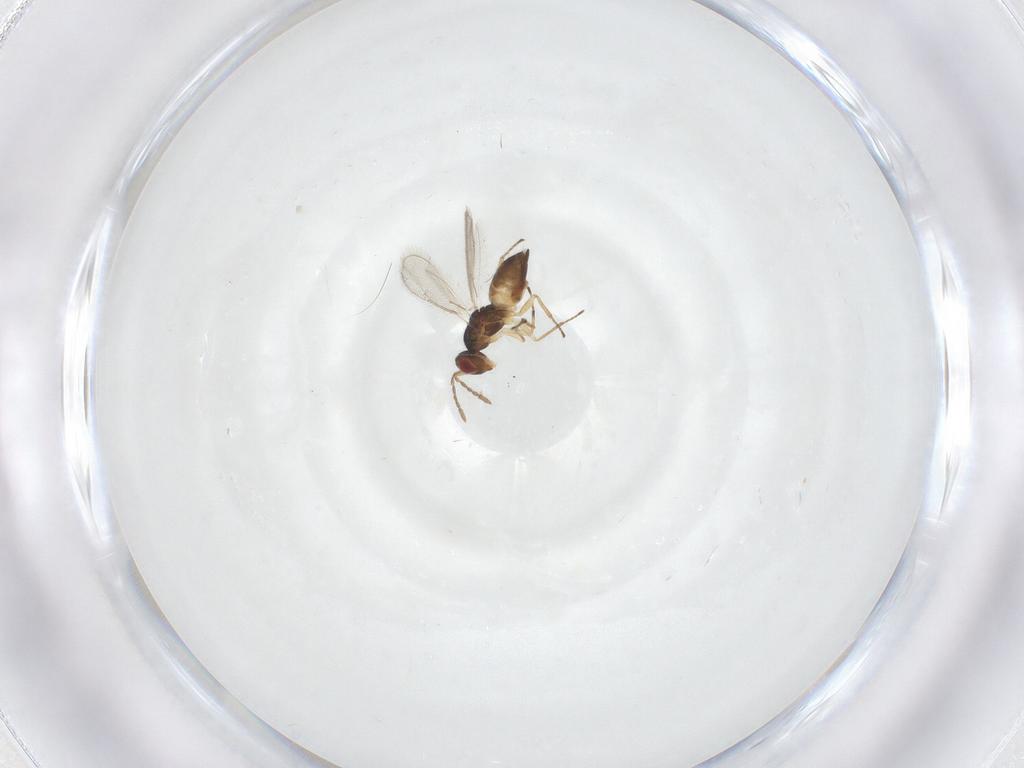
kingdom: Animalia
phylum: Arthropoda
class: Insecta
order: Hymenoptera
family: Eulophidae
